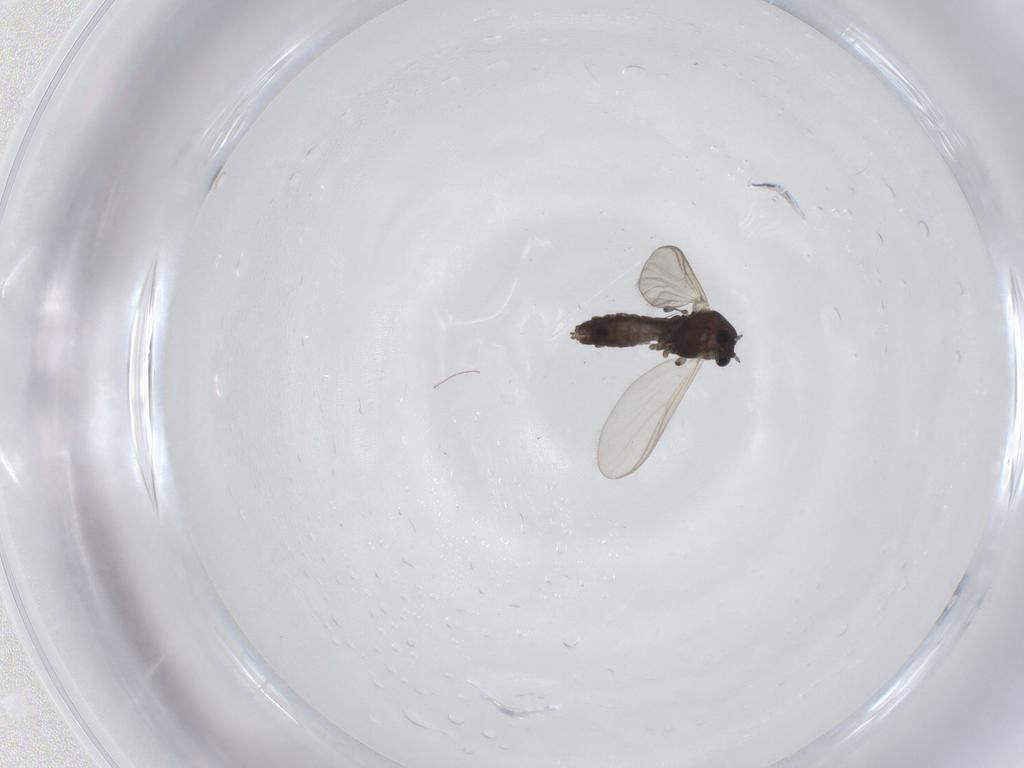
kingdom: Animalia
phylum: Arthropoda
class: Insecta
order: Diptera
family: Chironomidae
